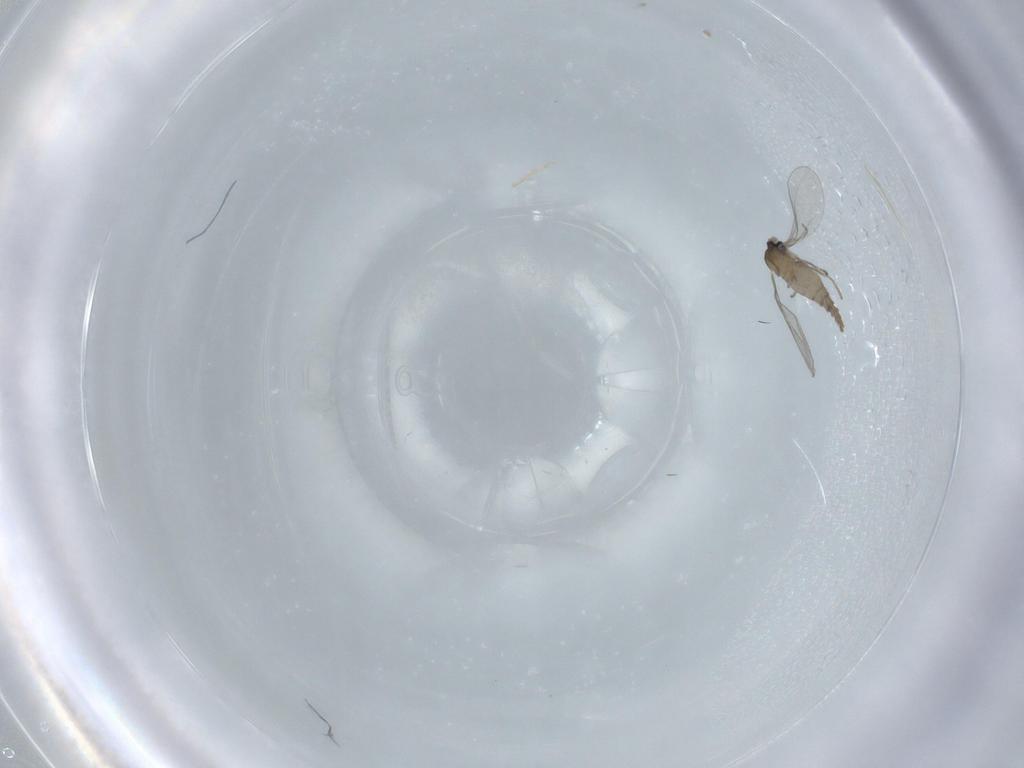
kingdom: Animalia
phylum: Arthropoda
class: Insecta
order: Diptera
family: Cecidomyiidae
